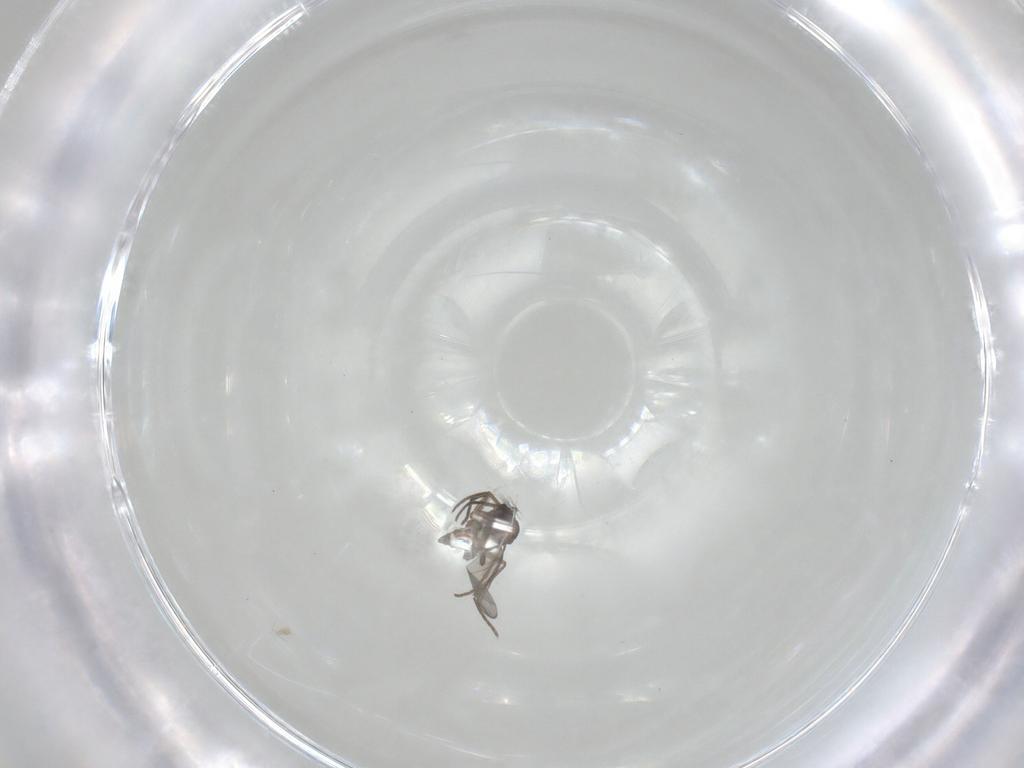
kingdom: Animalia
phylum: Arthropoda
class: Insecta
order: Diptera
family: Sciaridae
